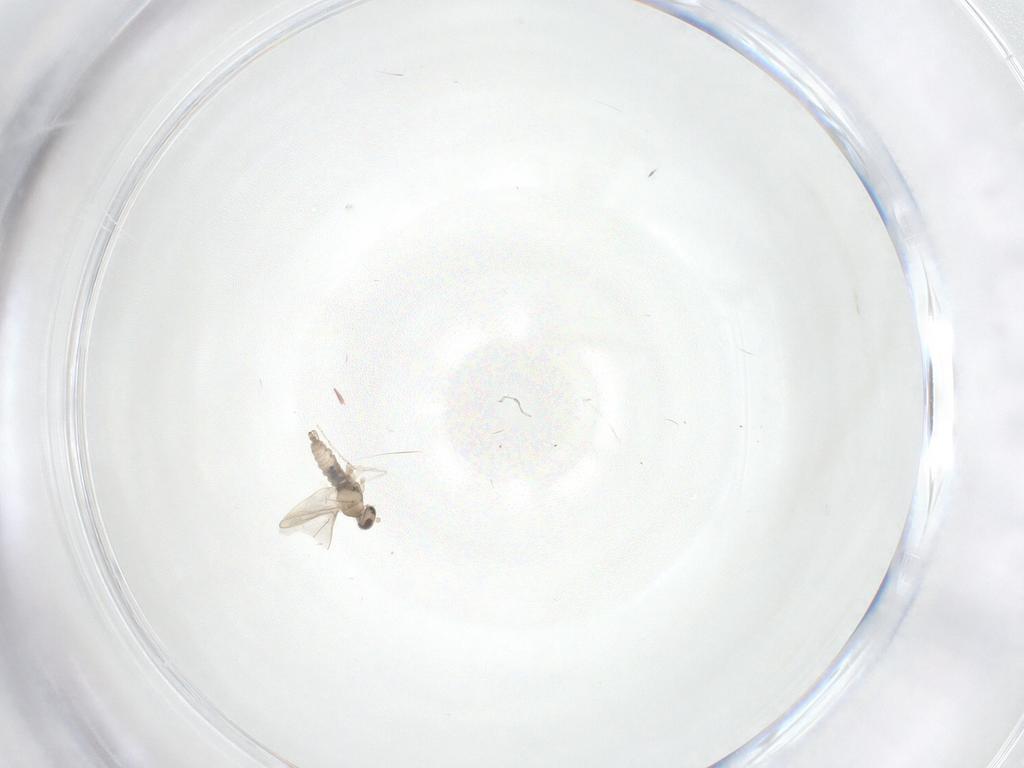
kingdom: Animalia
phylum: Arthropoda
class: Insecta
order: Diptera
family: Cecidomyiidae
